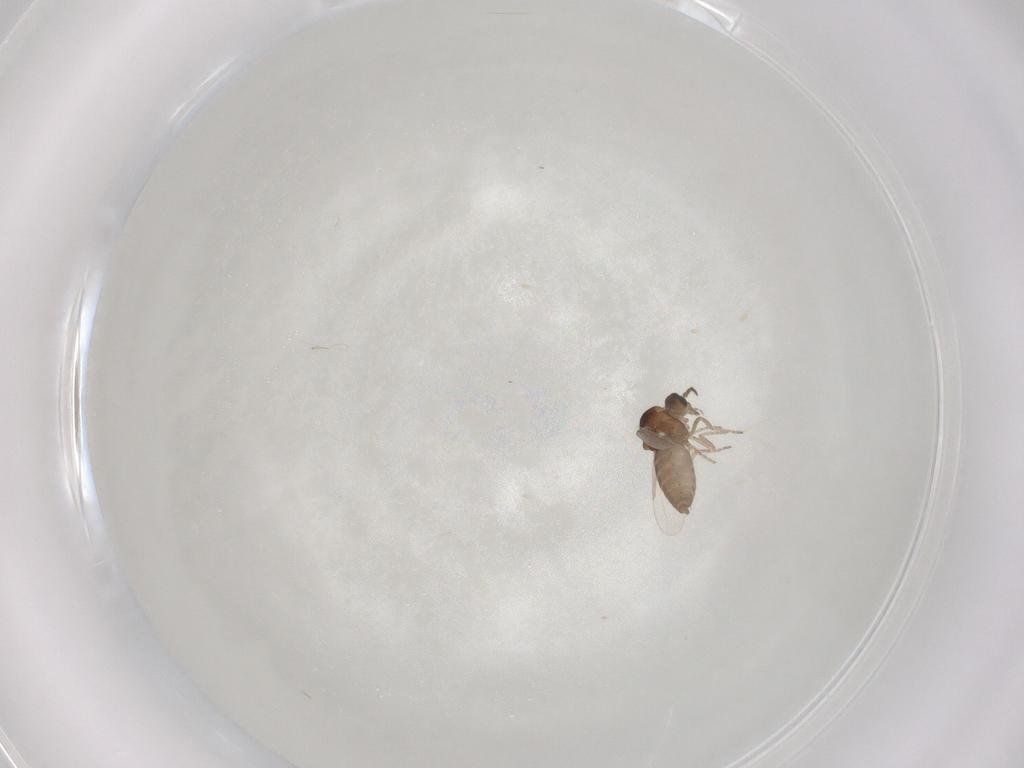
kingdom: Animalia
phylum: Arthropoda
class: Insecta
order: Diptera
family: Ceratopogonidae
